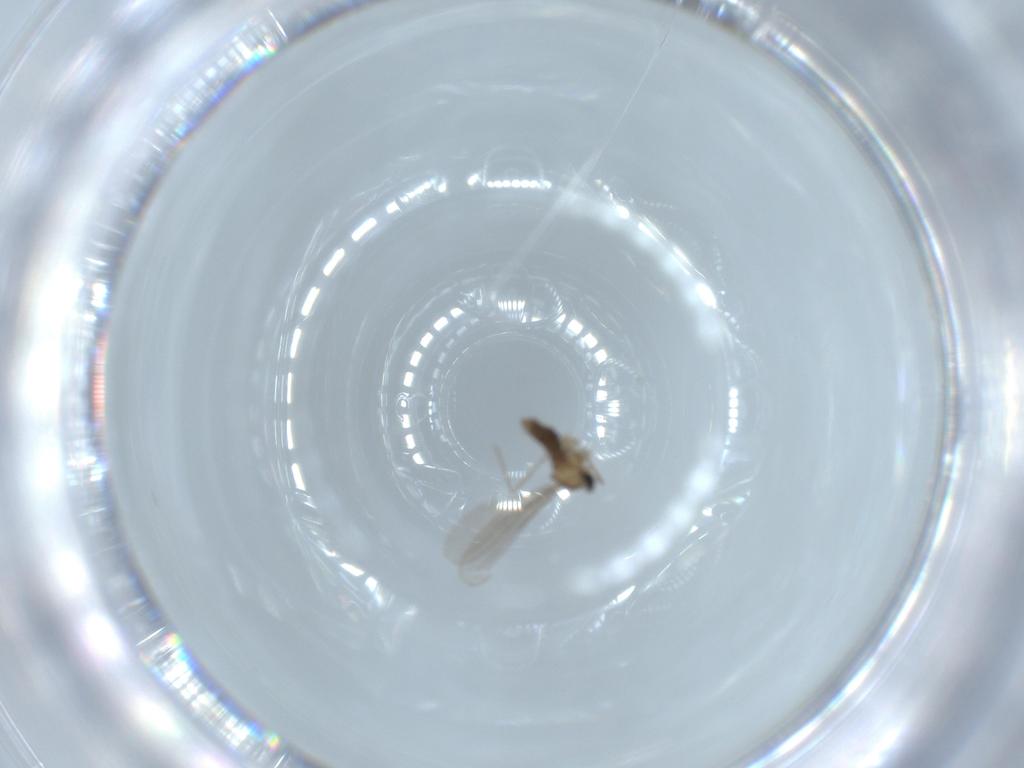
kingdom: Animalia
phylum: Arthropoda
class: Insecta
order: Diptera
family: Cecidomyiidae
